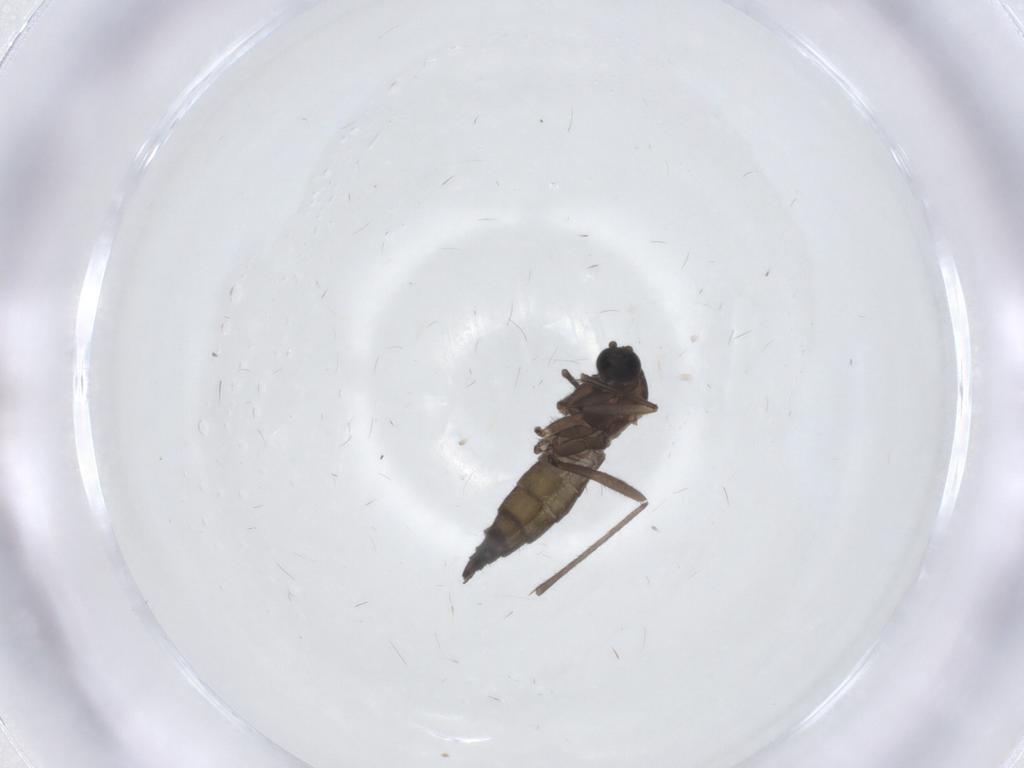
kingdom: Animalia
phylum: Arthropoda
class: Insecta
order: Diptera
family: Sciaridae
